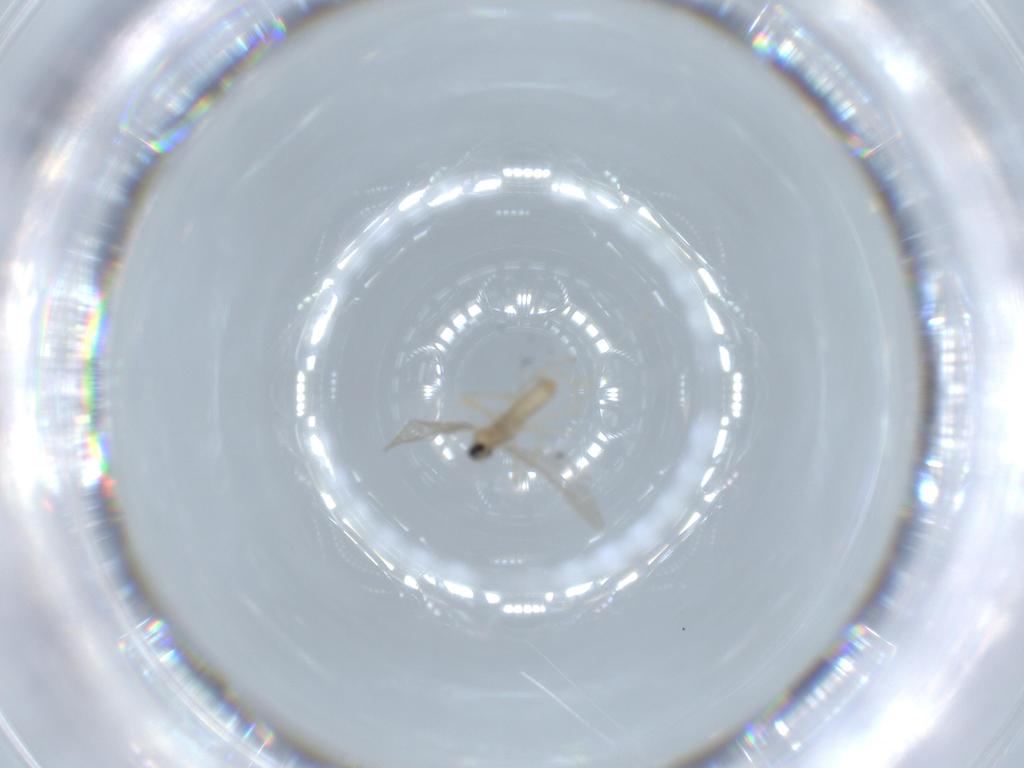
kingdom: Animalia
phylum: Arthropoda
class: Insecta
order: Diptera
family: Cecidomyiidae
